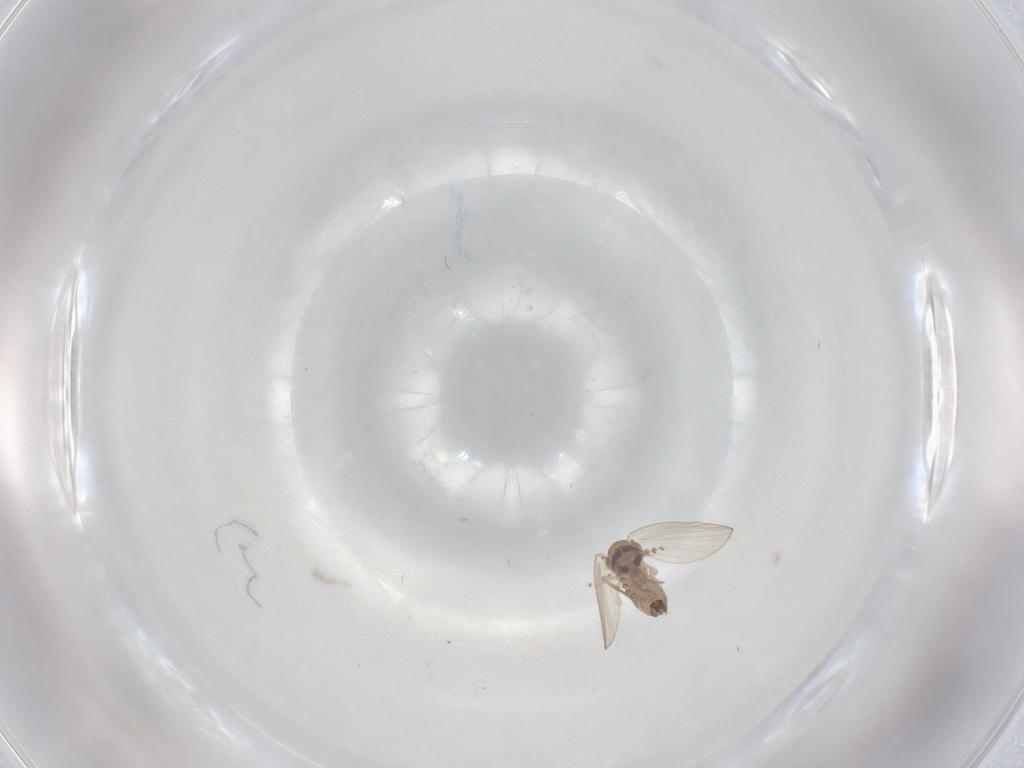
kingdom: Animalia
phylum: Arthropoda
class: Insecta
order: Diptera
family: Psychodidae
